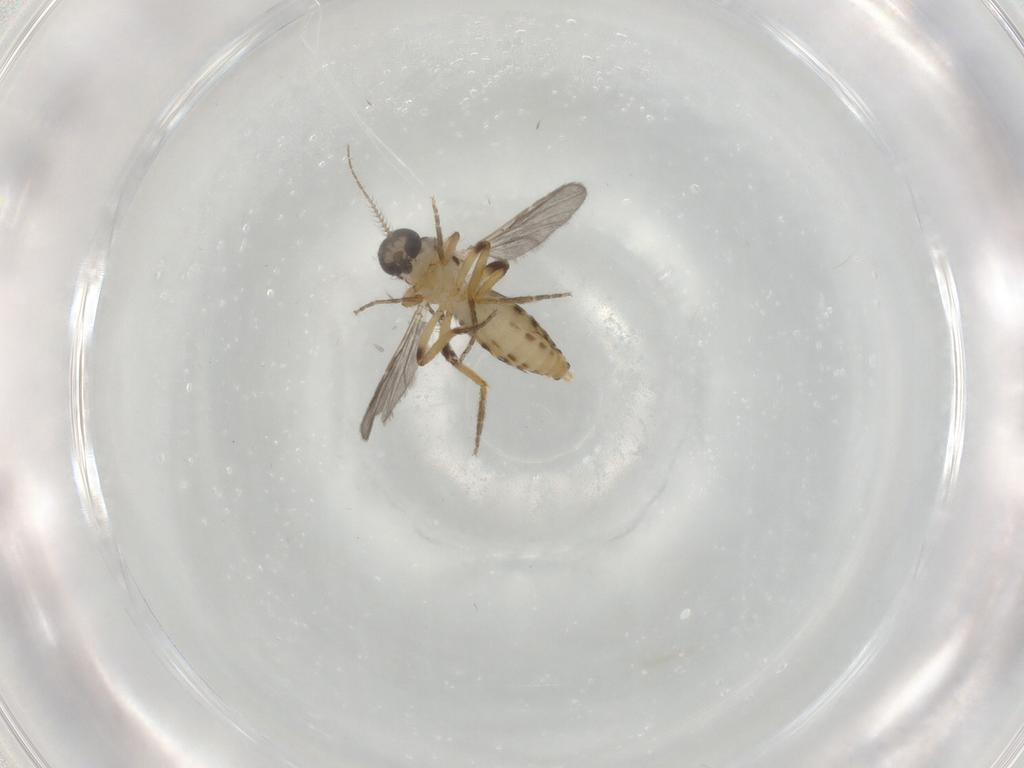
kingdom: Animalia
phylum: Arthropoda
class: Insecta
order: Diptera
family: Ceratopogonidae
